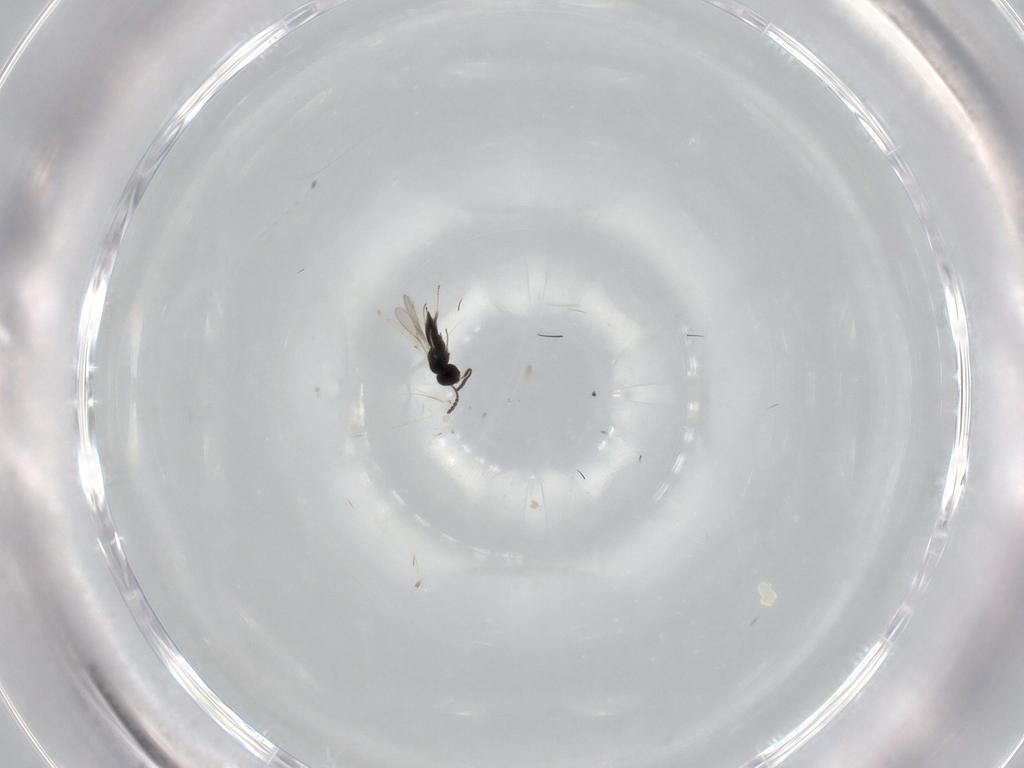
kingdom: Animalia
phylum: Arthropoda
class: Insecta
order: Hymenoptera
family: Scelionidae
